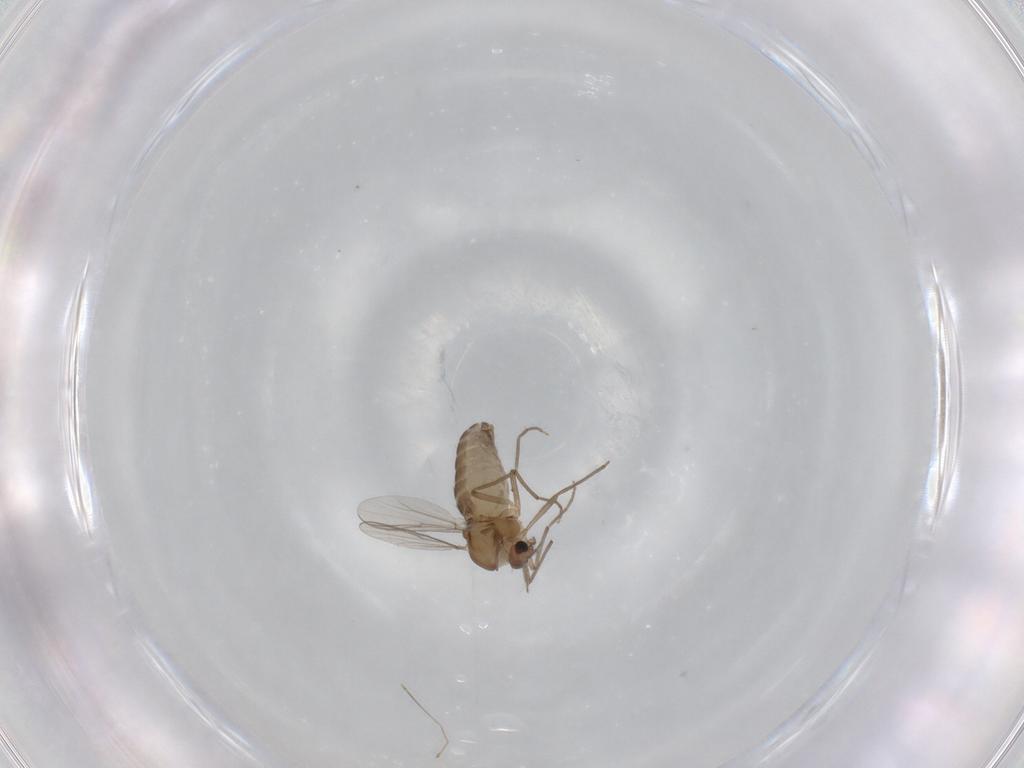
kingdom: Animalia
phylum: Arthropoda
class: Insecta
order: Diptera
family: Chironomidae
